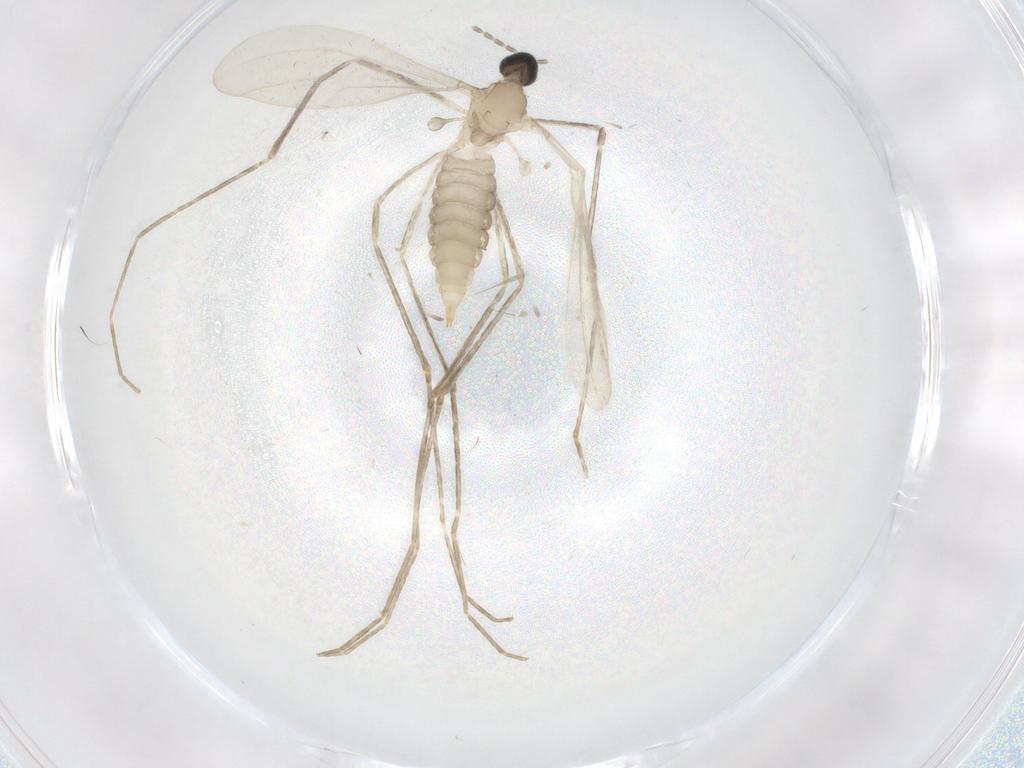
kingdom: Animalia
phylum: Arthropoda
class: Insecta
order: Diptera
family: Cecidomyiidae
